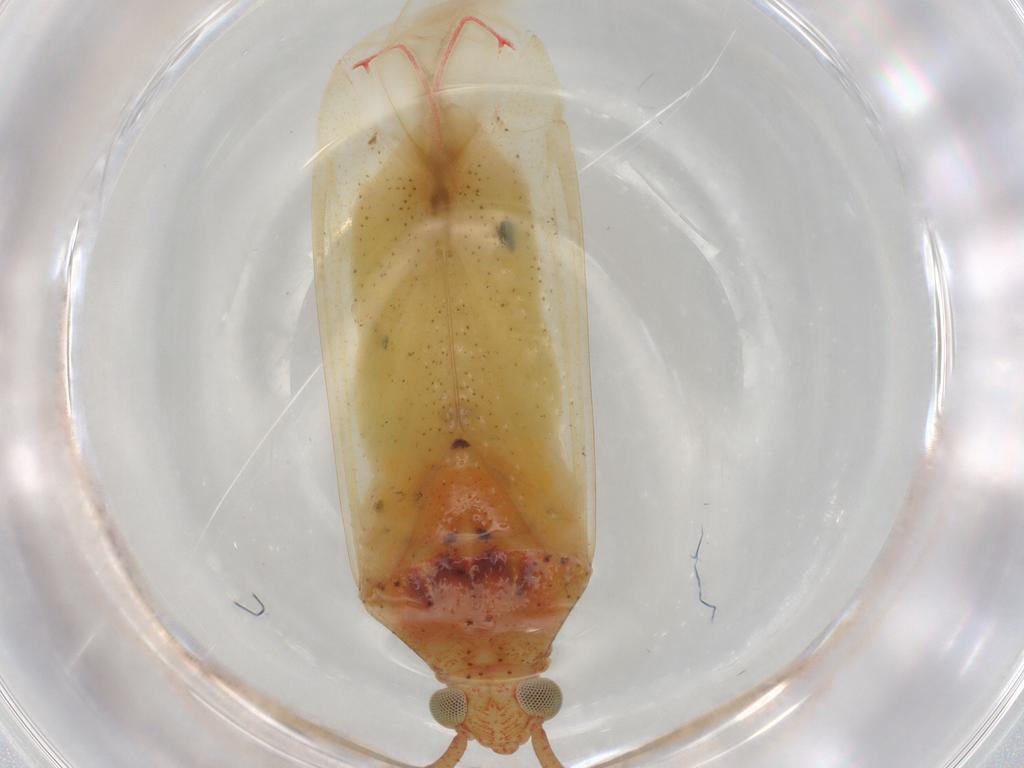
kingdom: Animalia
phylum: Arthropoda
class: Insecta
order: Hemiptera
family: Miridae
